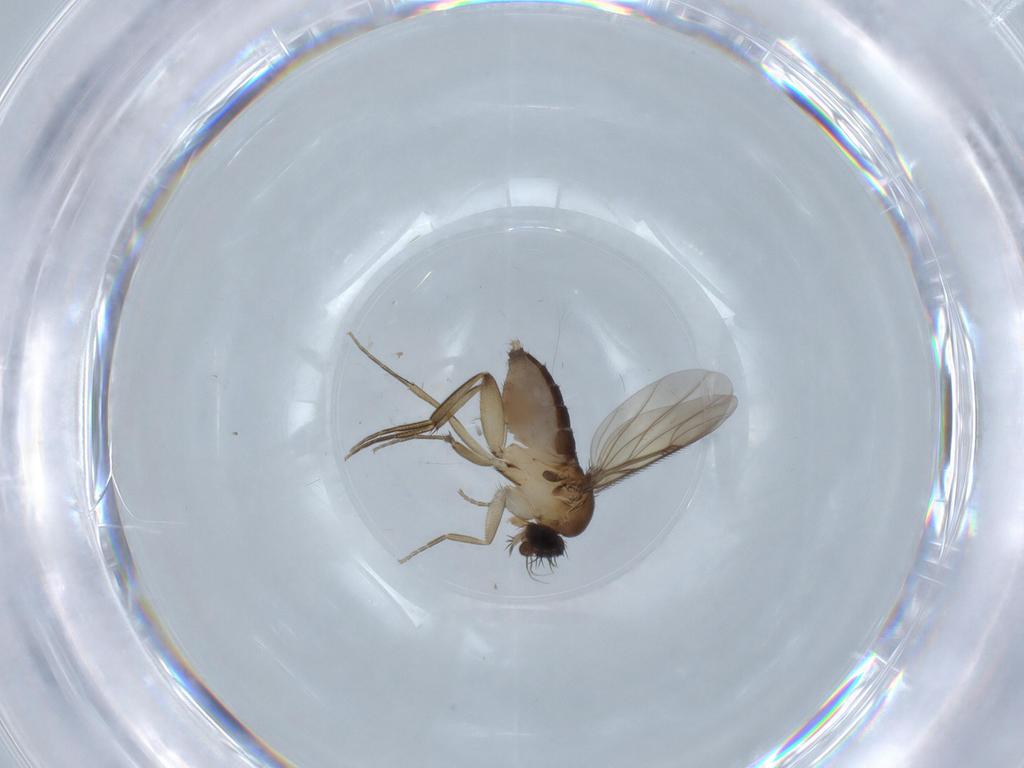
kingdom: Animalia
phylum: Arthropoda
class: Insecta
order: Diptera
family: Phoridae
